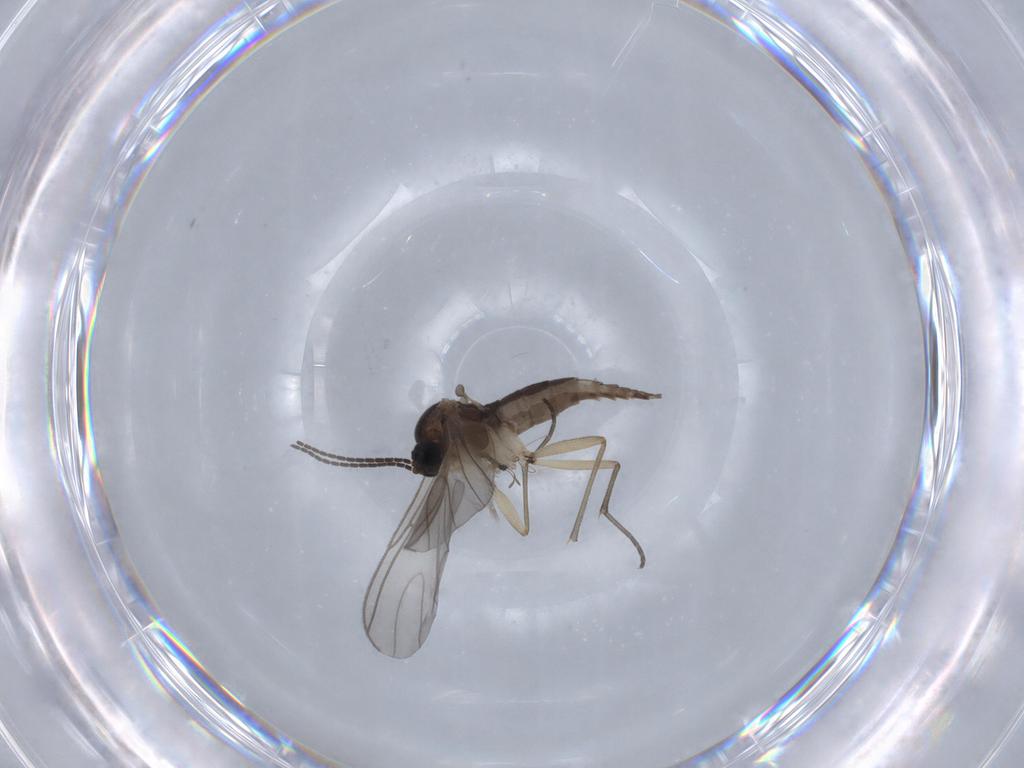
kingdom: Animalia
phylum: Arthropoda
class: Insecta
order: Diptera
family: Sciaridae
